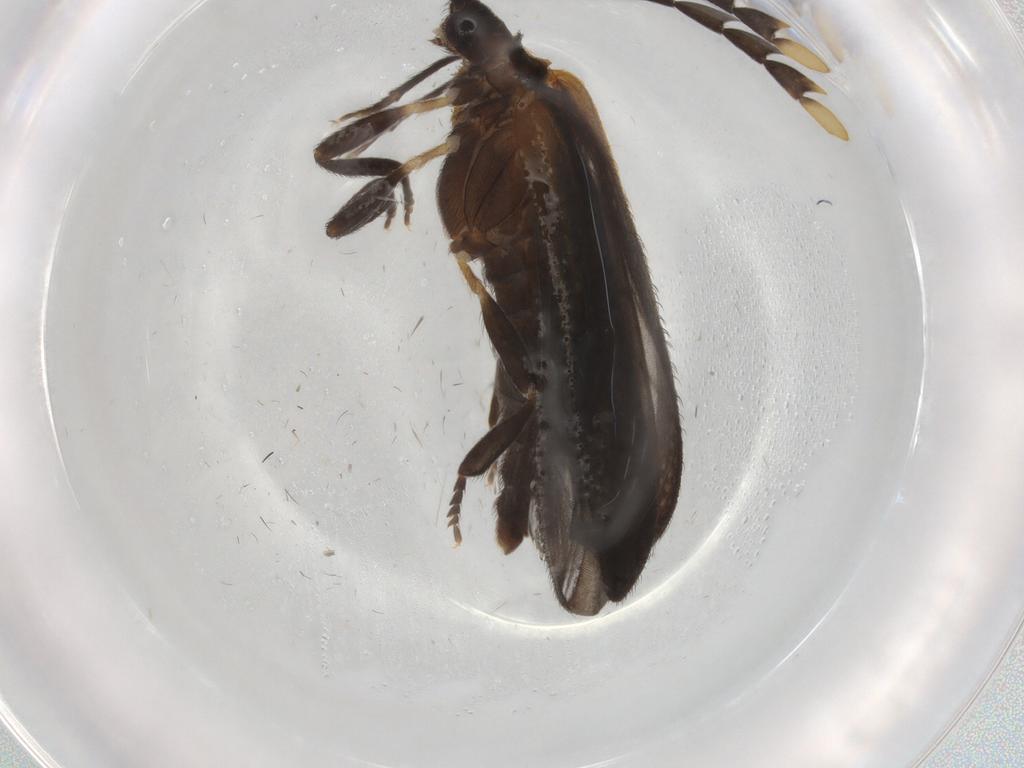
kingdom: Animalia
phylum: Arthropoda
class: Insecta
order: Coleoptera
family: Lycidae
